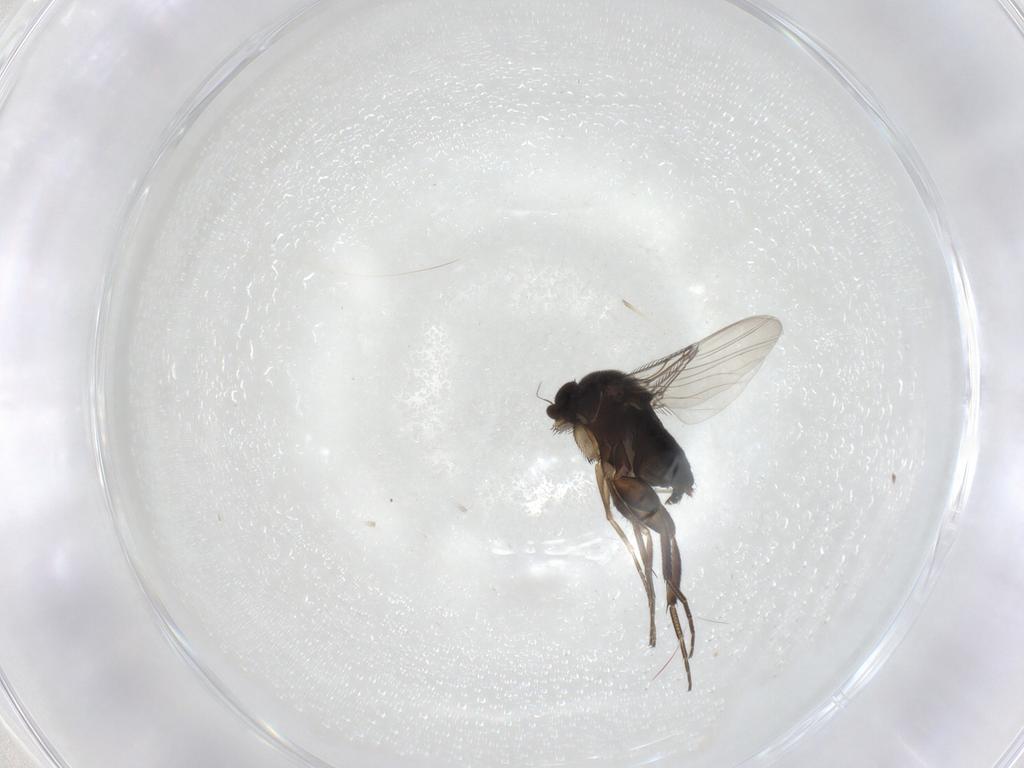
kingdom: Animalia
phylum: Arthropoda
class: Insecta
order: Diptera
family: Phoridae
